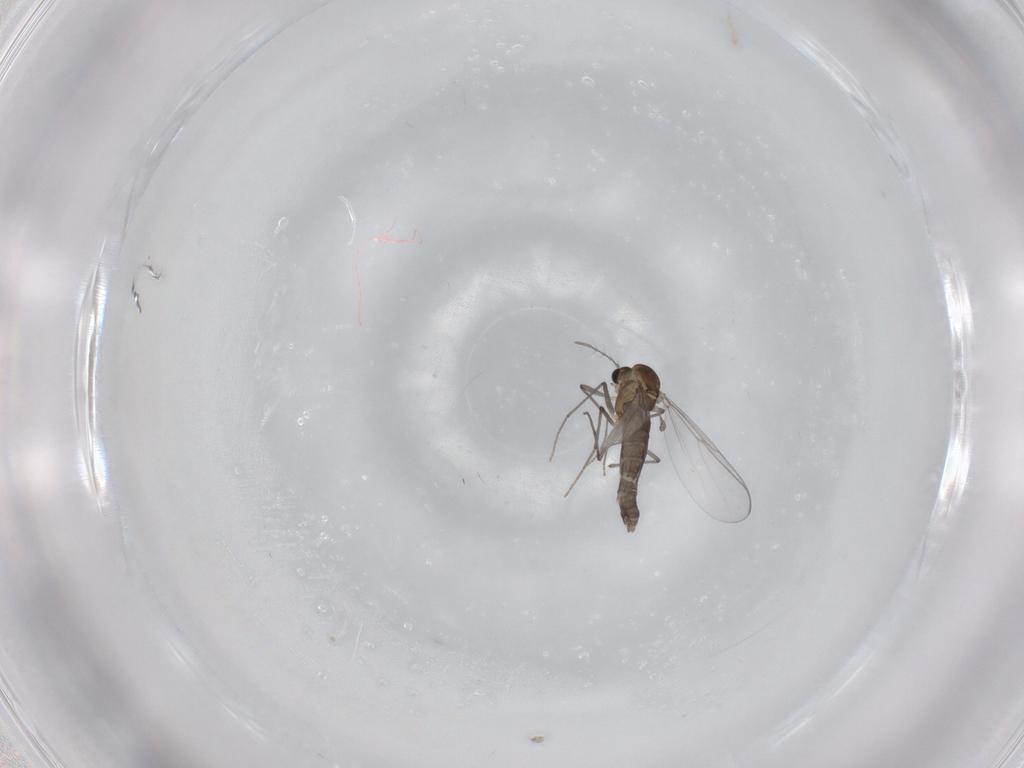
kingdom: Animalia
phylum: Arthropoda
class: Insecta
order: Diptera
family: Chironomidae
